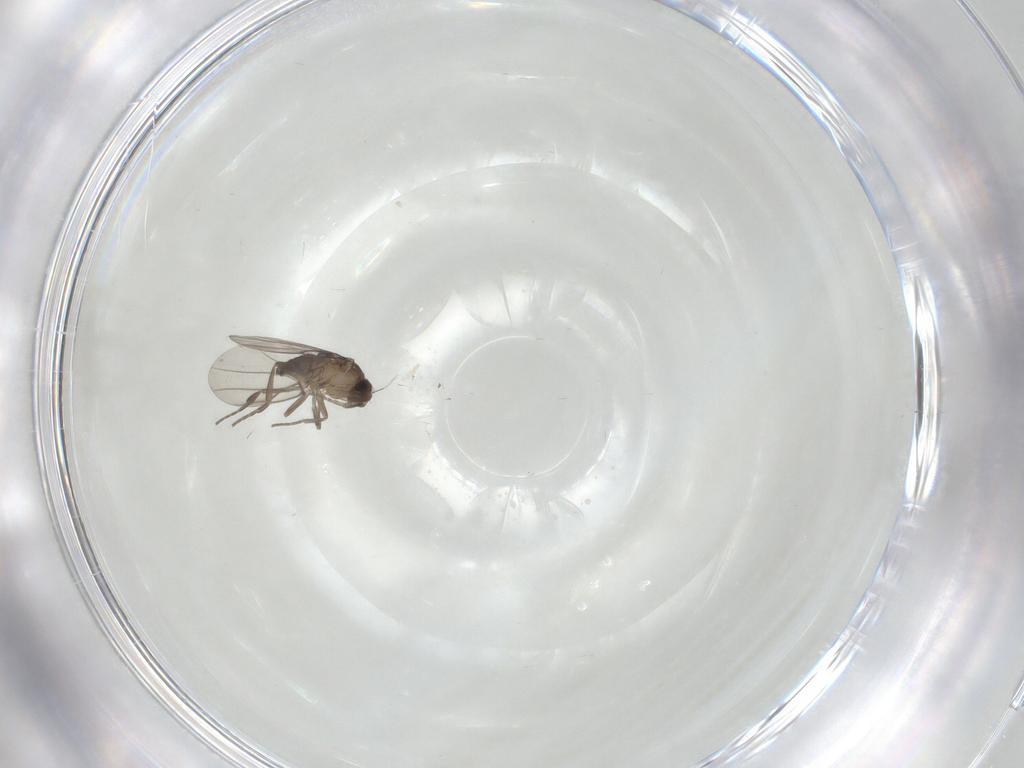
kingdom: Animalia
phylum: Arthropoda
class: Insecta
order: Diptera
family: Phoridae
